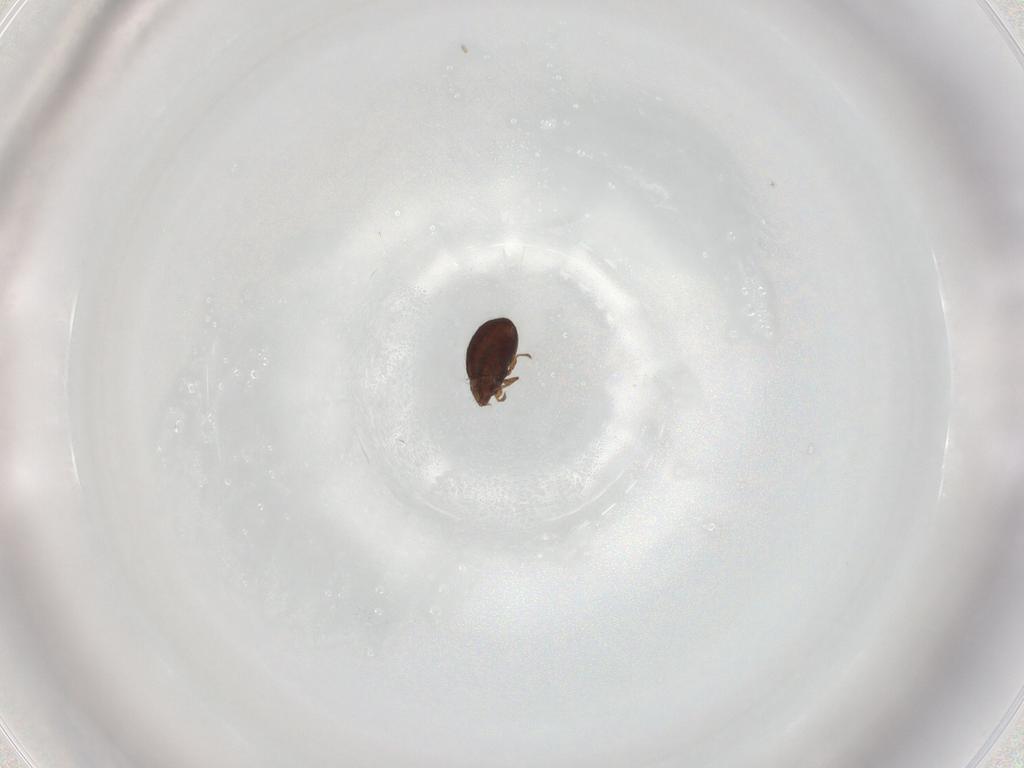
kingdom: Animalia
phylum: Arthropoda
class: Arachnida
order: Sarcoptiformes
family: Oribatulidae
